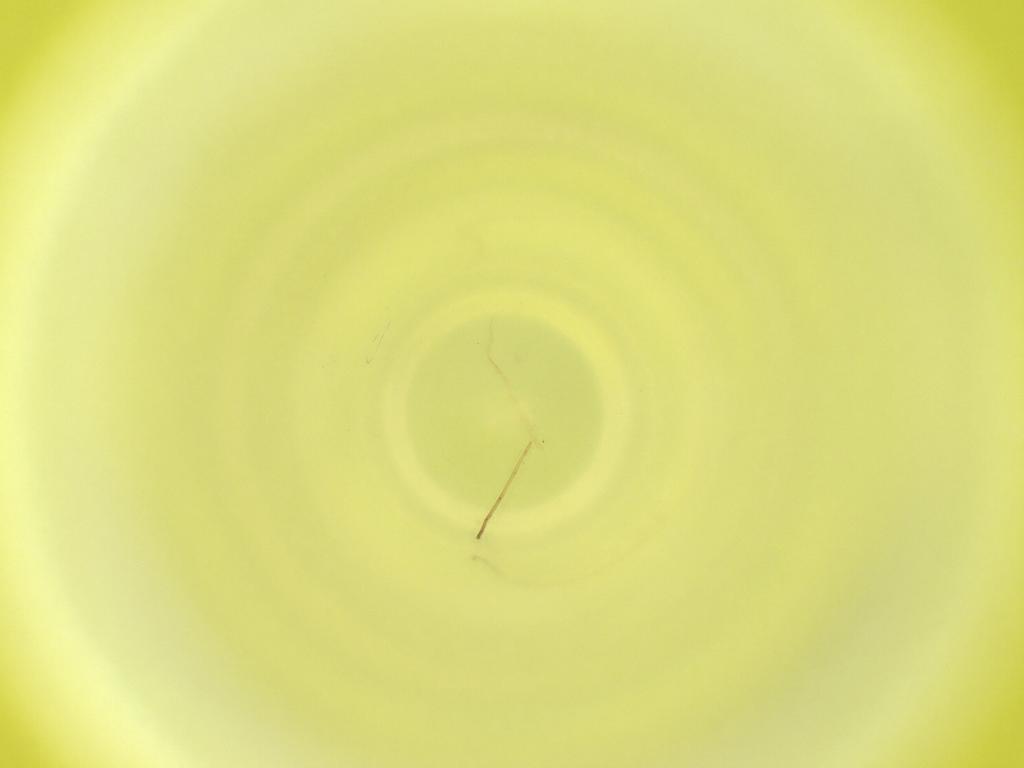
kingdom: Animalia
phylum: Arthropoda
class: Insecta
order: Diptera
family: Cecidomyiidae
